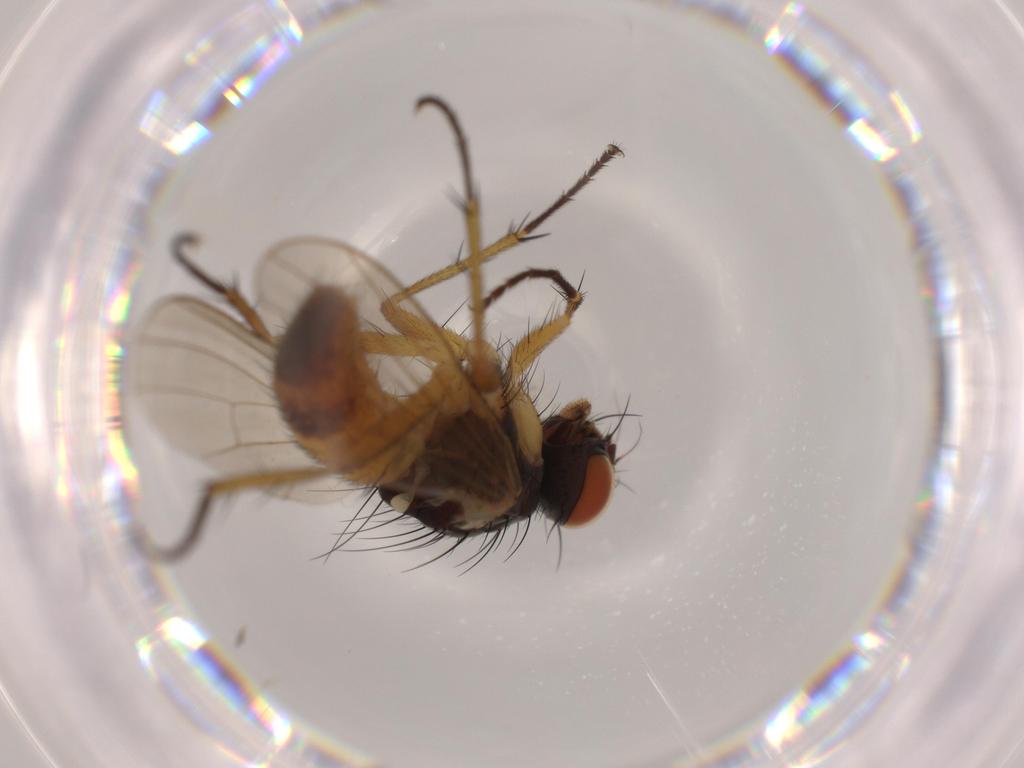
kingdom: Animalia
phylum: Arthropoda
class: Insecta
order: Diptera
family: Muscidae
